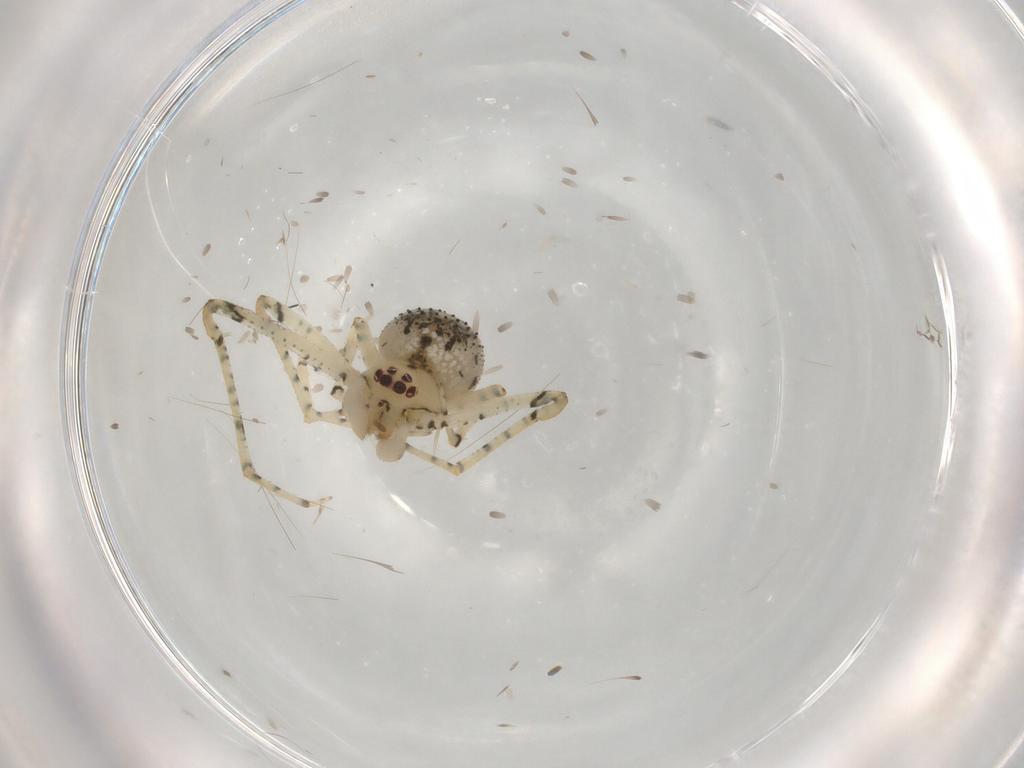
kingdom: Animalia
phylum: Arthropoda
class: Arachnida
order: Araneae
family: Theridiidae
